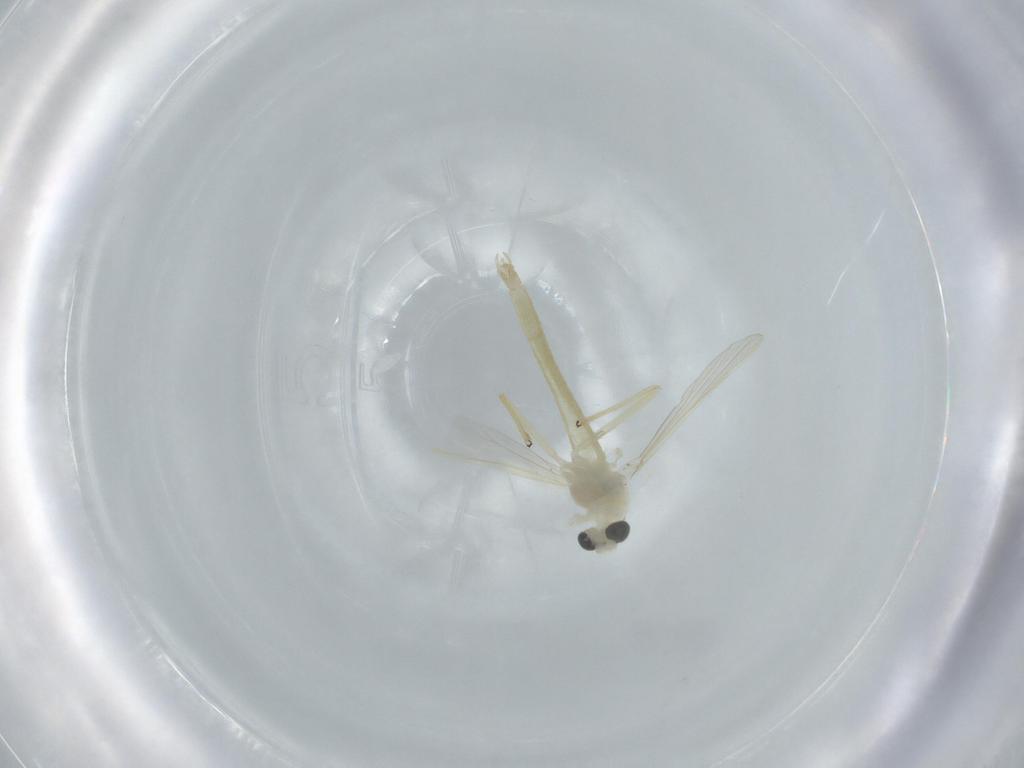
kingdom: Animalia
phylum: Arthropoda
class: Insecta
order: Diptera
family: Chironomidae
